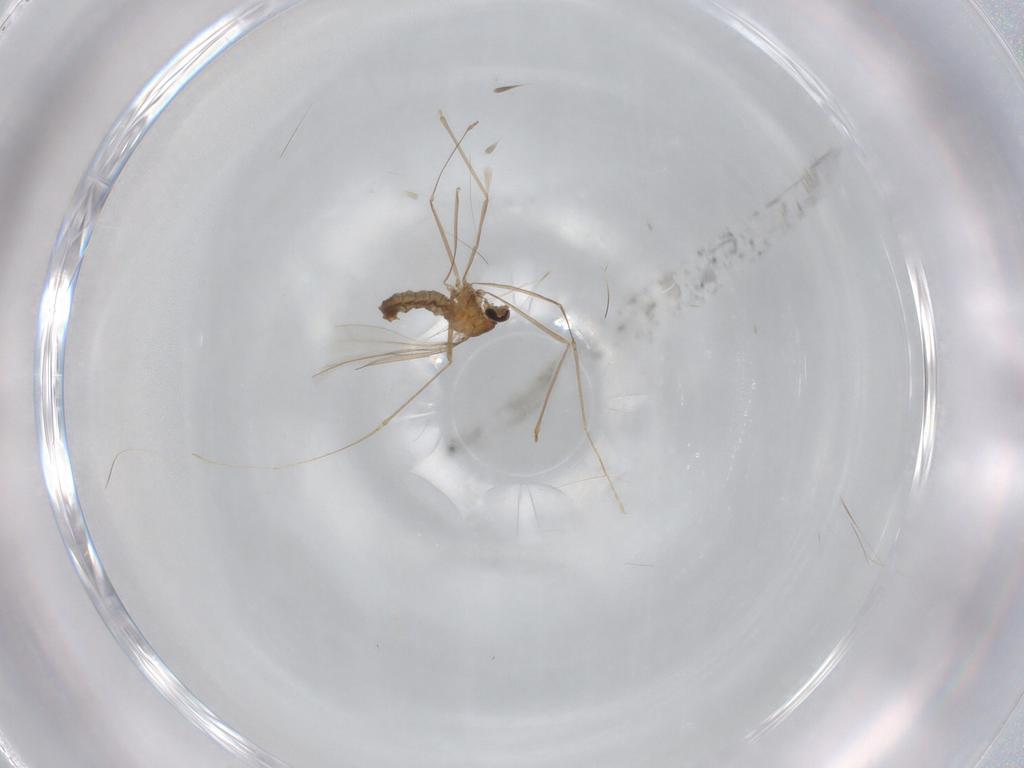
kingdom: Animalia
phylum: Arthropoda
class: Insecta
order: Diptera
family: Cecidomyiidae
